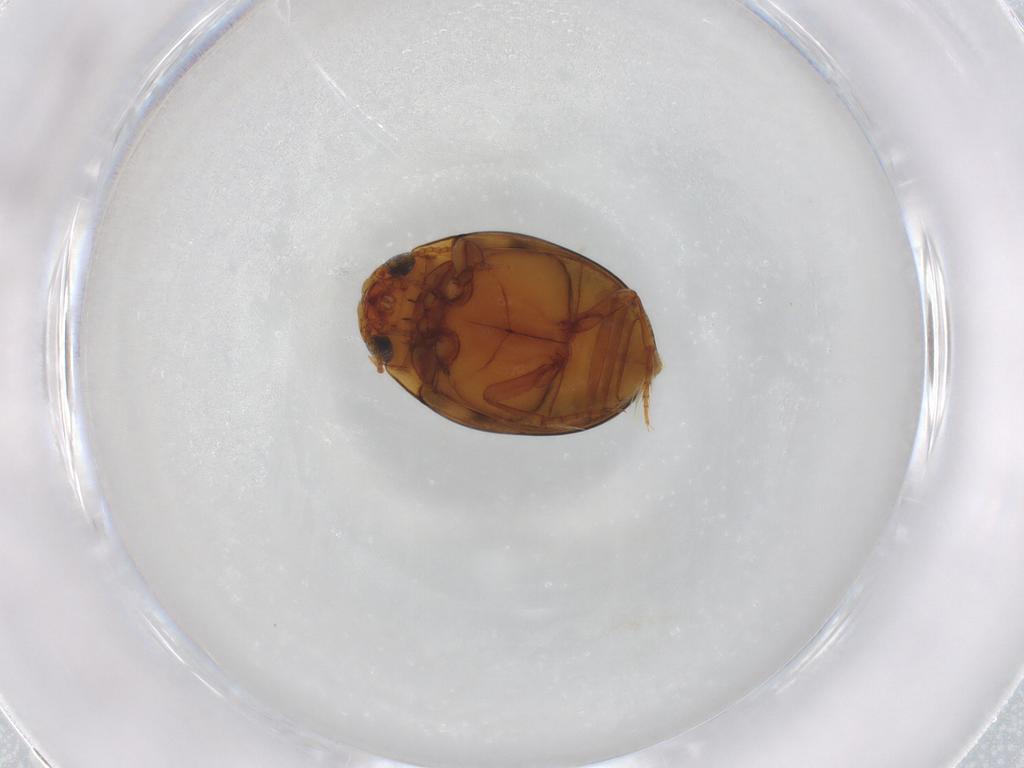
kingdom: Animalia
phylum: Arthropoda
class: Insecta
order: Coleoptera
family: Dytiscidae
